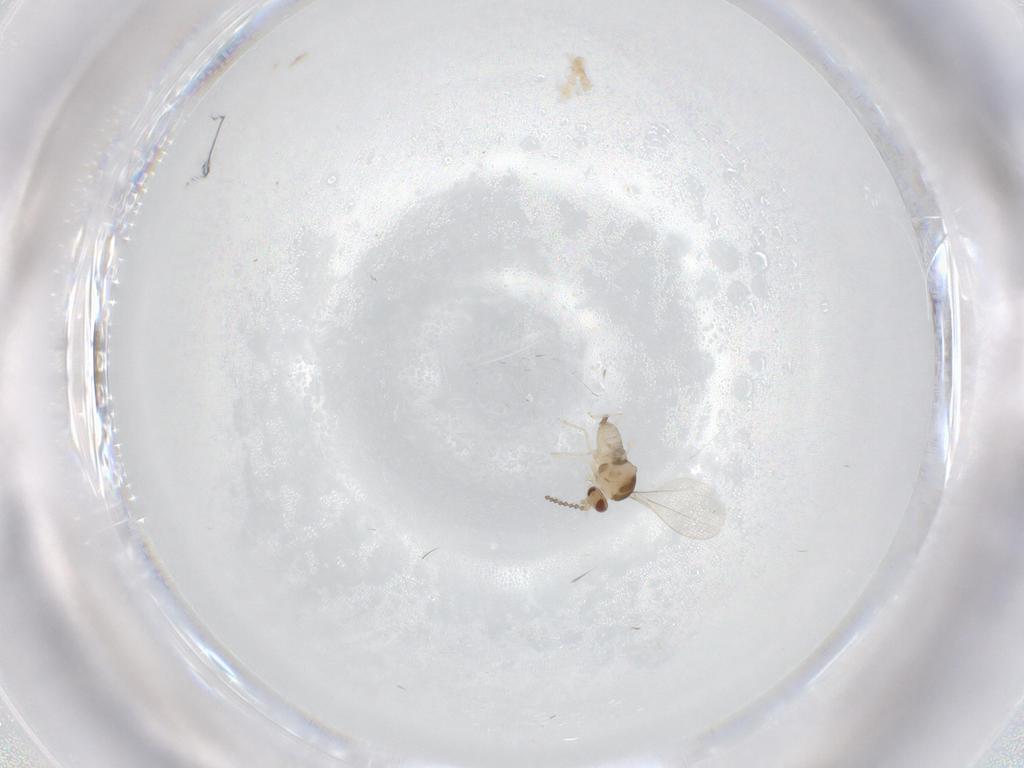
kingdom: Animalia
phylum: Arthropoda
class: Insecta
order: Diptera
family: Cecidomyiidae
